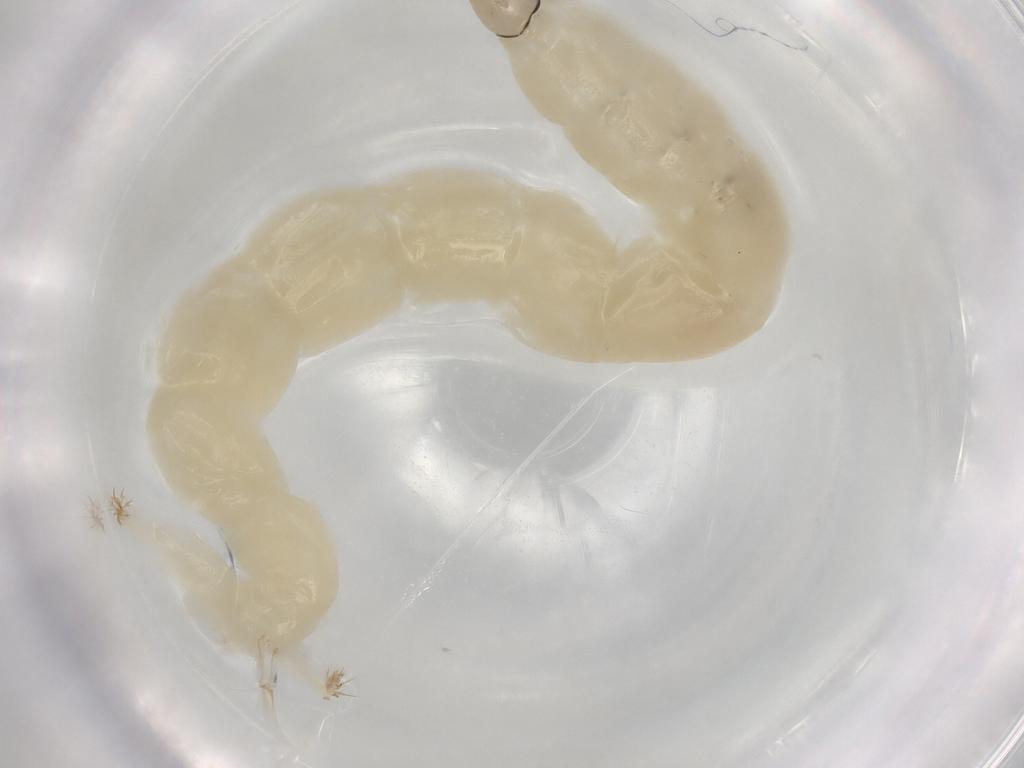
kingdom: Animalia
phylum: Arthropoda
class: Insecta
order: Diptera
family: Chironomidae
